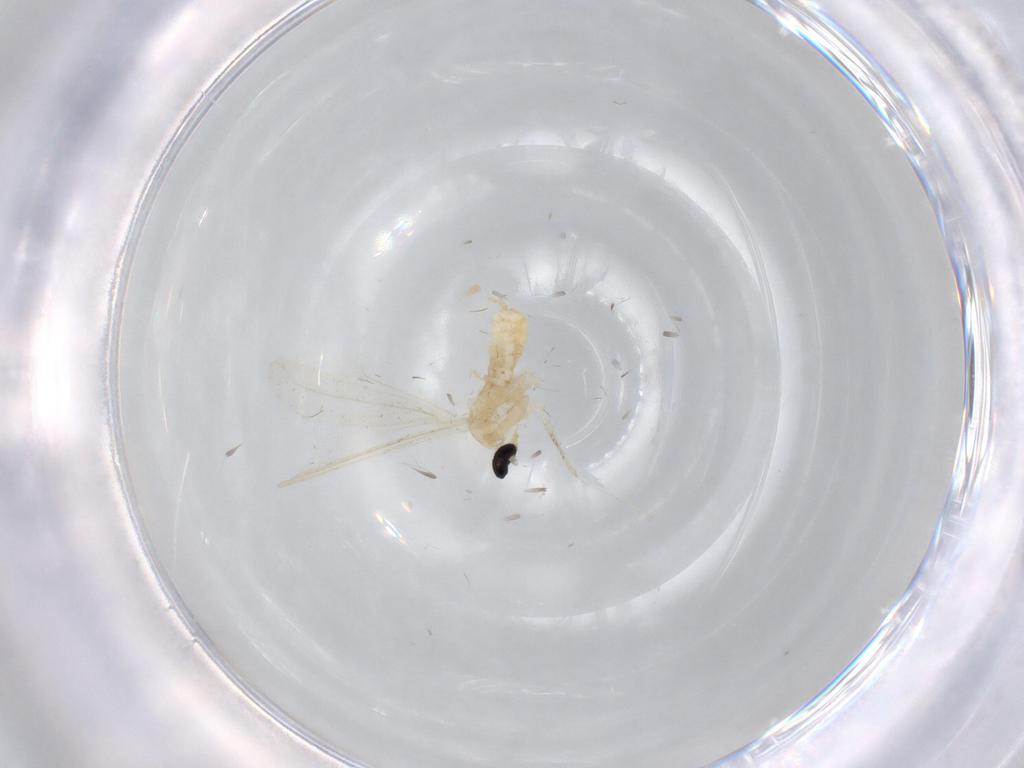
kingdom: Animalia
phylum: Arthropoda
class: Insecta
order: Diptera
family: Cecidomyiidae
